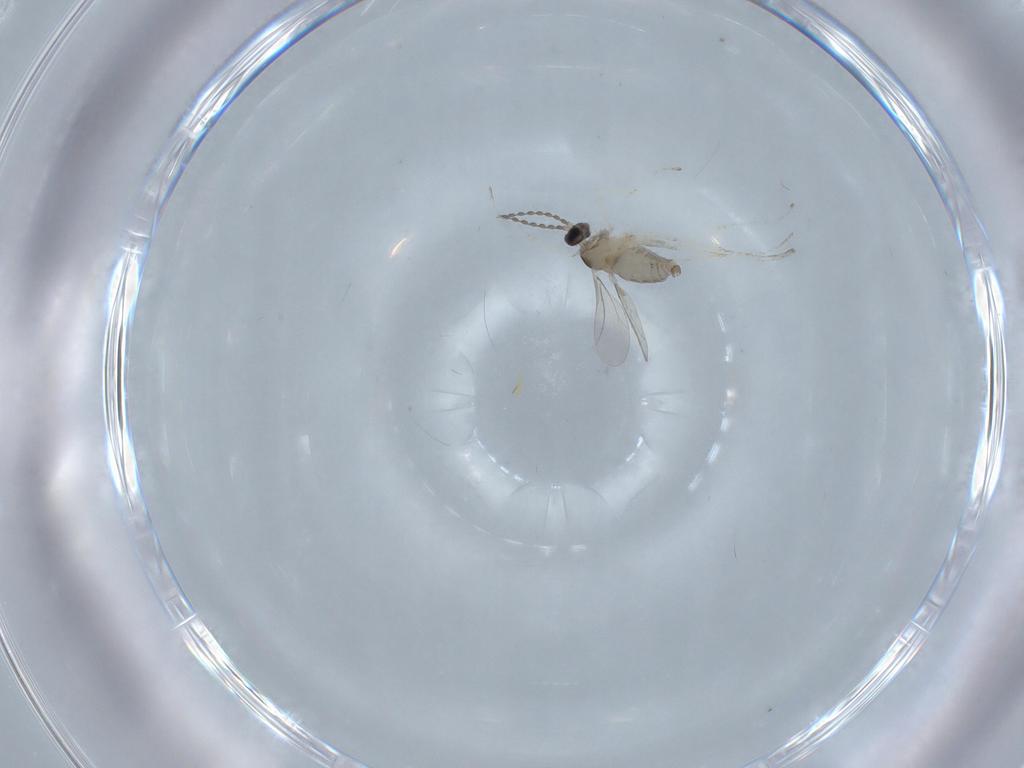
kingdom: Animalia
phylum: Arthropoda
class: Insecta
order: Diptera
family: Cecidomyiidae
